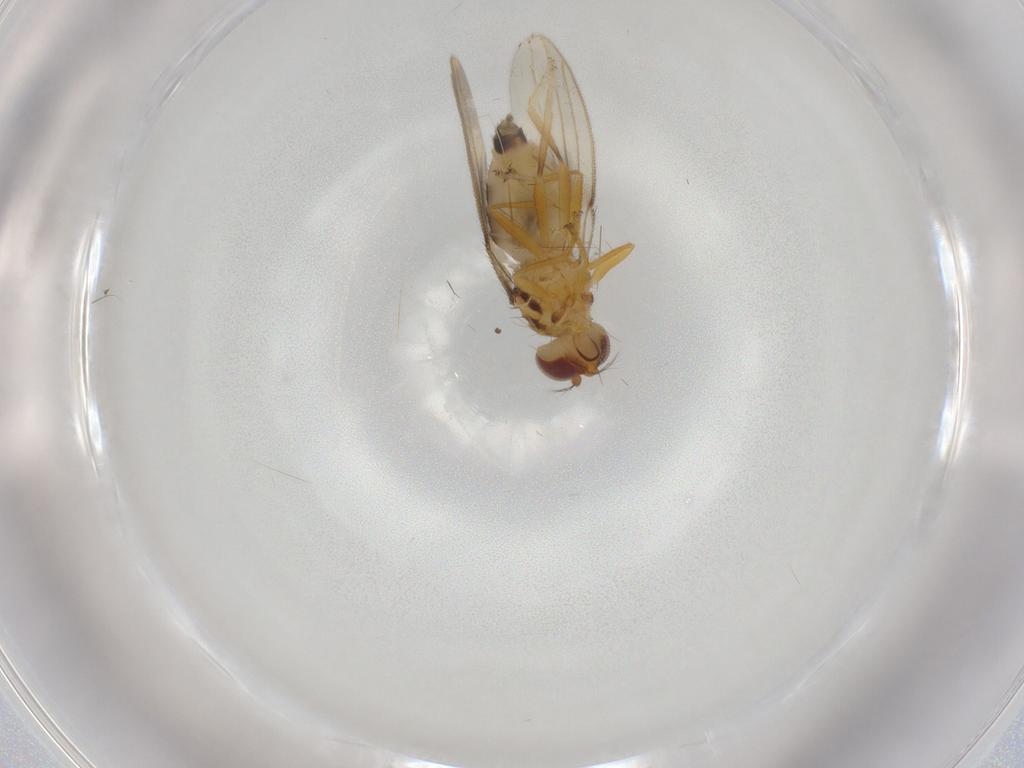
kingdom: Animalia
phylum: Arthropoda
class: Insecta
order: Diptera
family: Periscelididae
